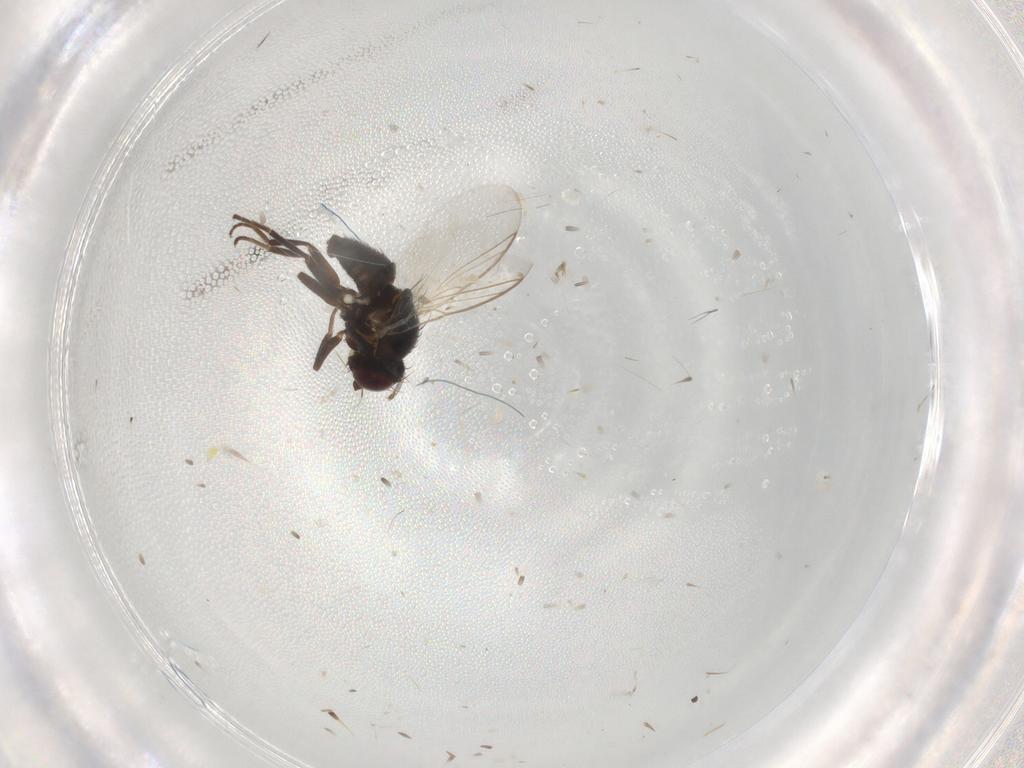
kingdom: Animalia
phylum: Arthropoda
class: Insecta
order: Diptera
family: Agromyzidae
